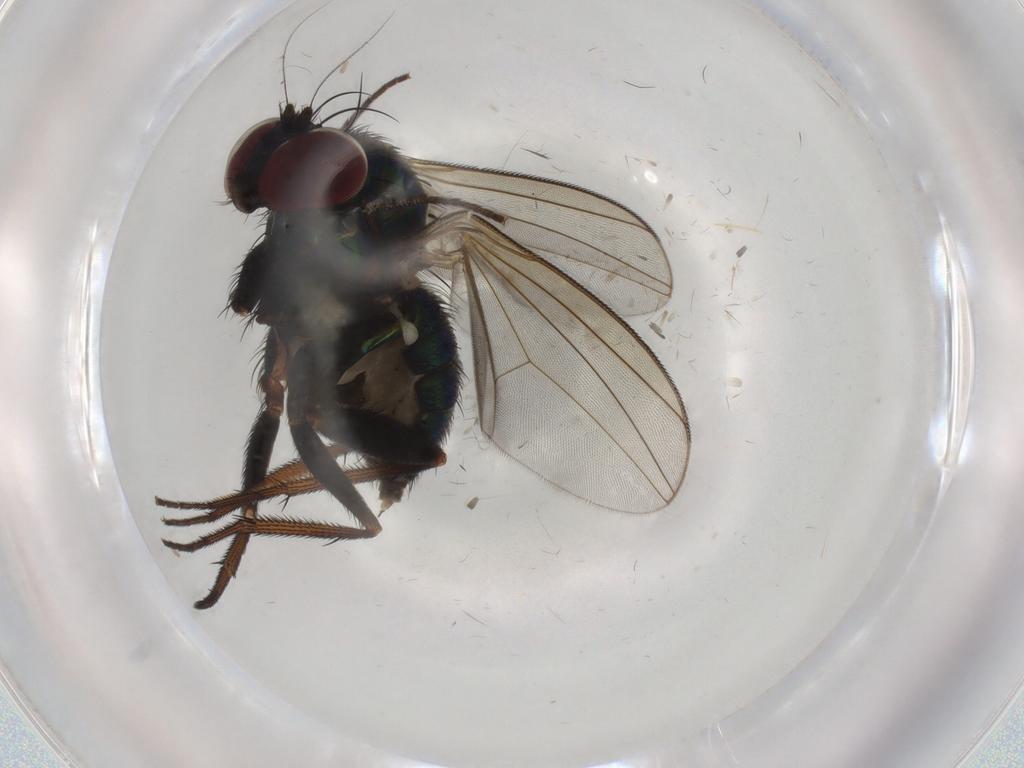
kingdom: Animalia
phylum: Arthropoda
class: Insecta
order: Diptera
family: Dolichopodidae
